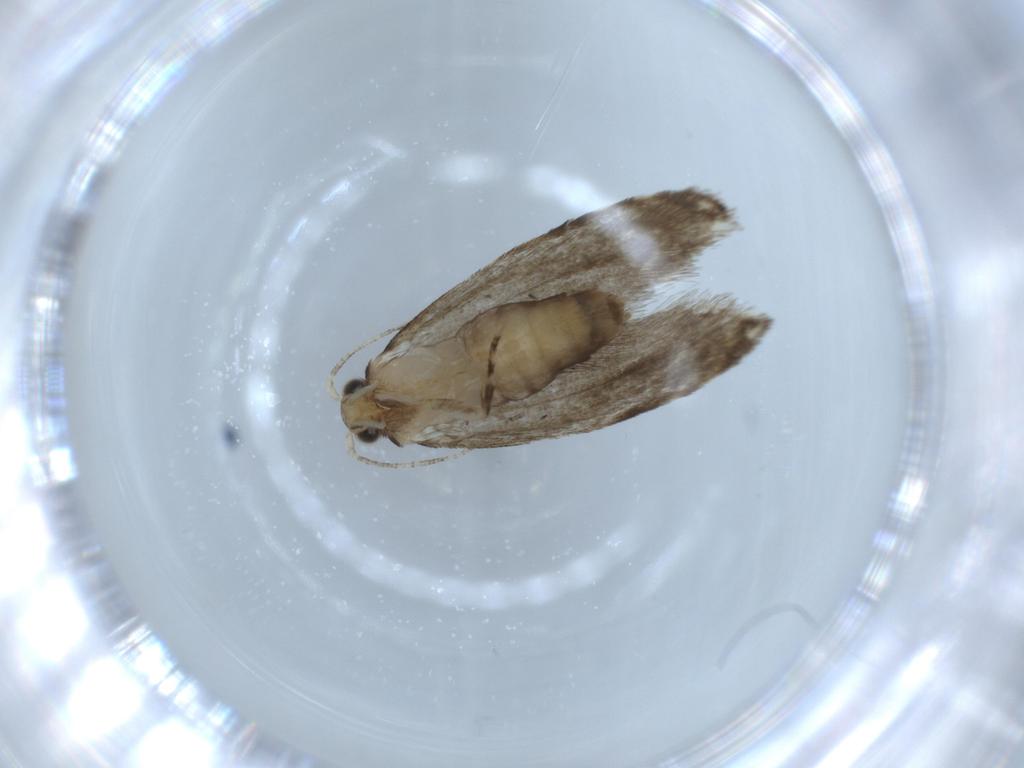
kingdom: Animalia
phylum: Arthropoda
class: Insecta
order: Lepidoptera
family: Tineidae
